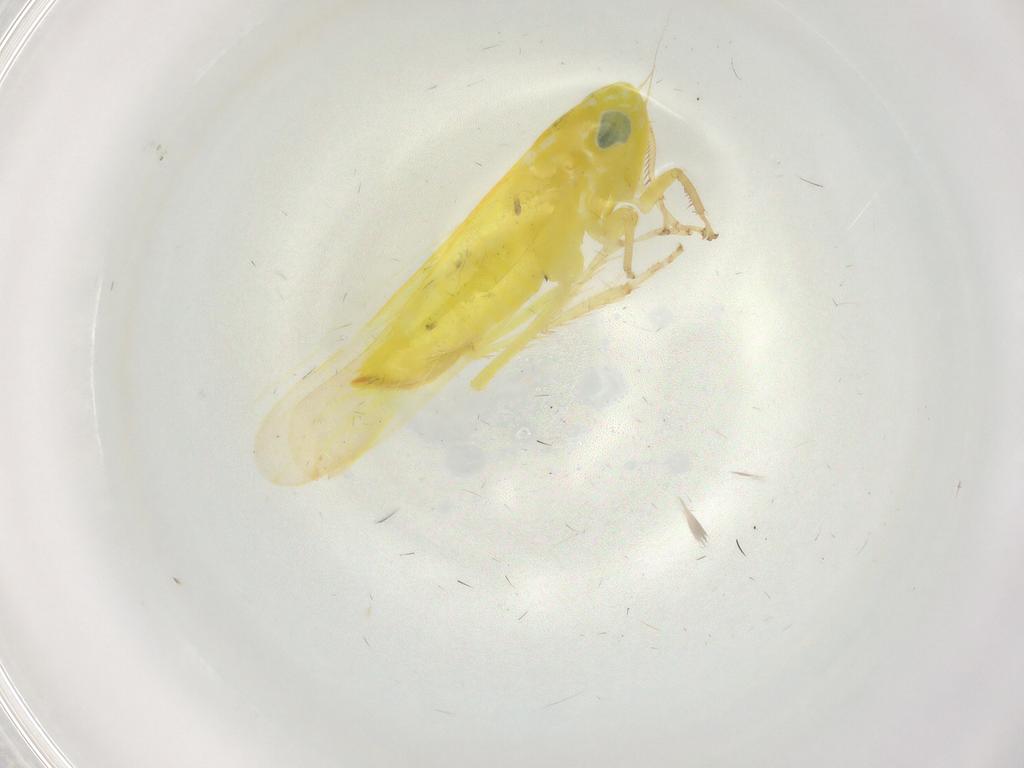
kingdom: Animalia
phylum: Arthropoda
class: Insecta
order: Hemiptera
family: Cicadellidae
